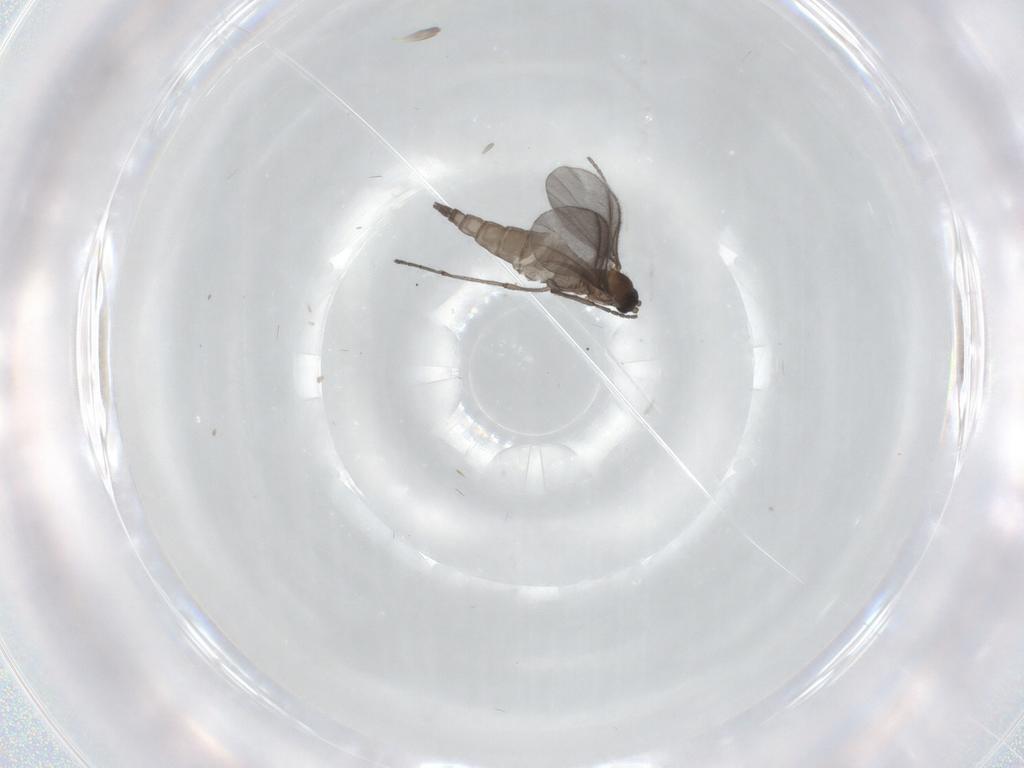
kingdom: Animalia
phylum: Arthropoda
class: Insecta
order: Diptera
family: Sciaridae
